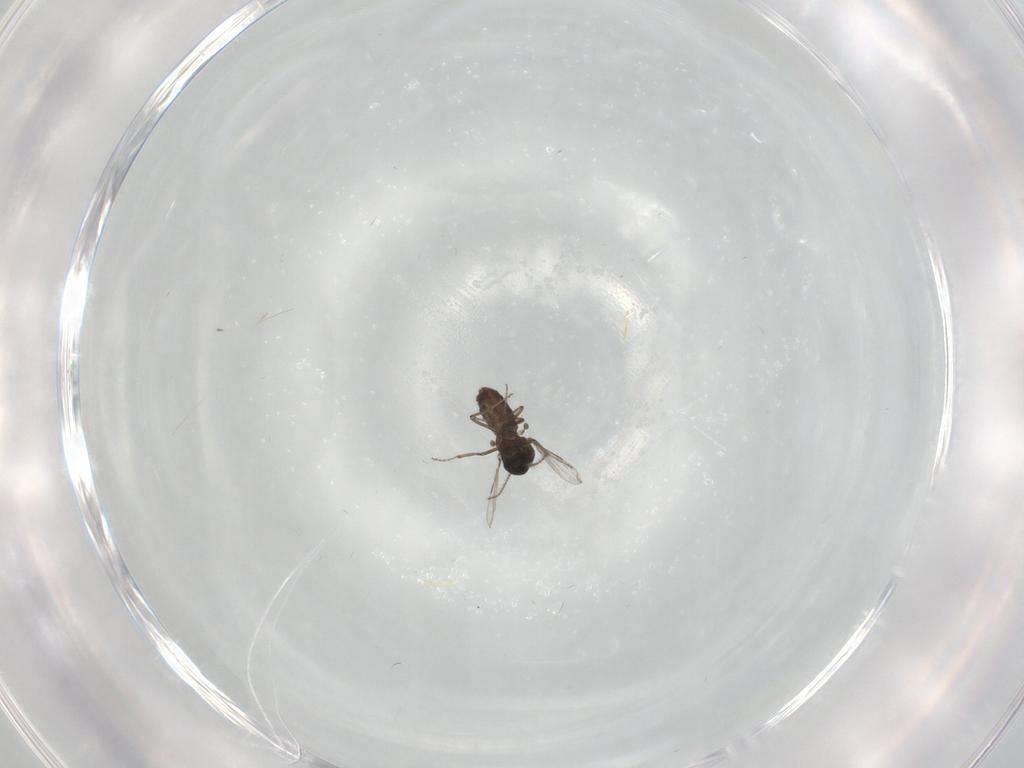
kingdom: Animalia
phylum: Arthropoda
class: Insecta
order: Diptera
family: Ceratopogonidae
